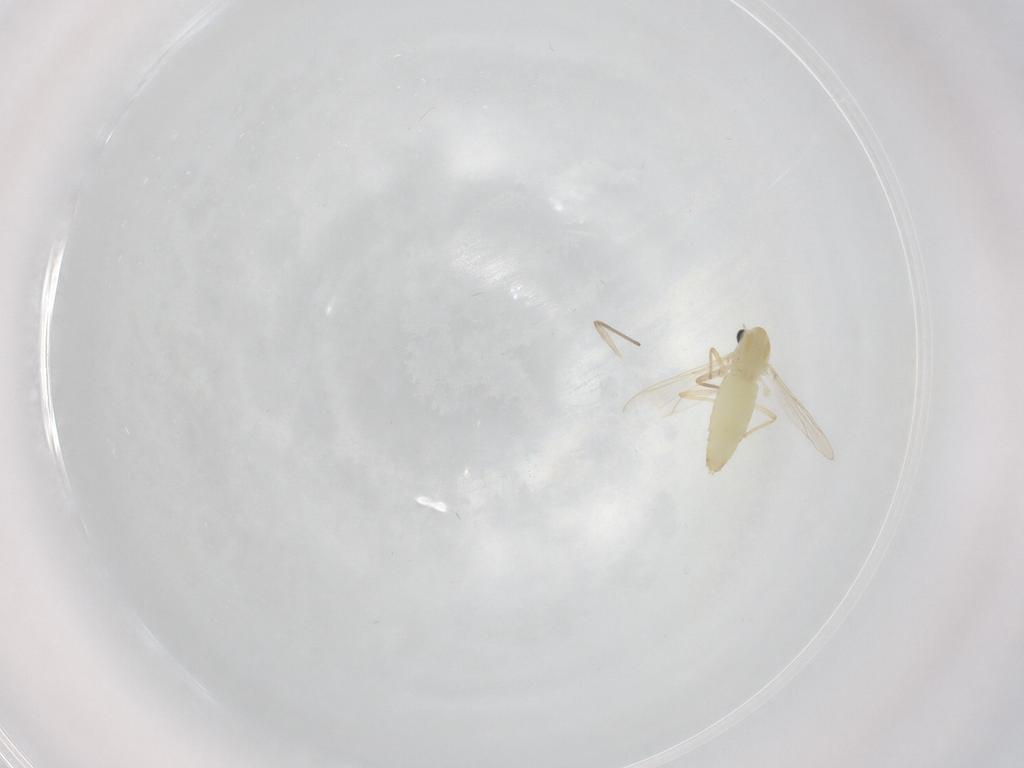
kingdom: Animalia
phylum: Arthropoda
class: Insecta
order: Diptera
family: Chironomidae
